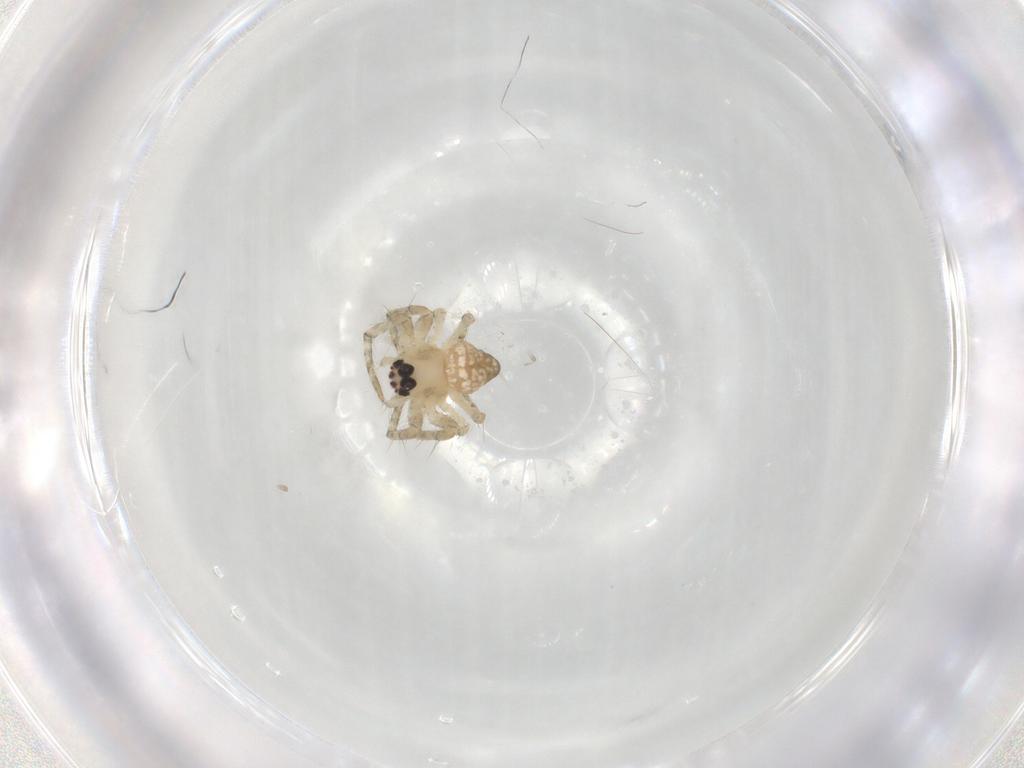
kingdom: Animalia
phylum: Arthropoda
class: Arachnida
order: Araneae
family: Araneidae
